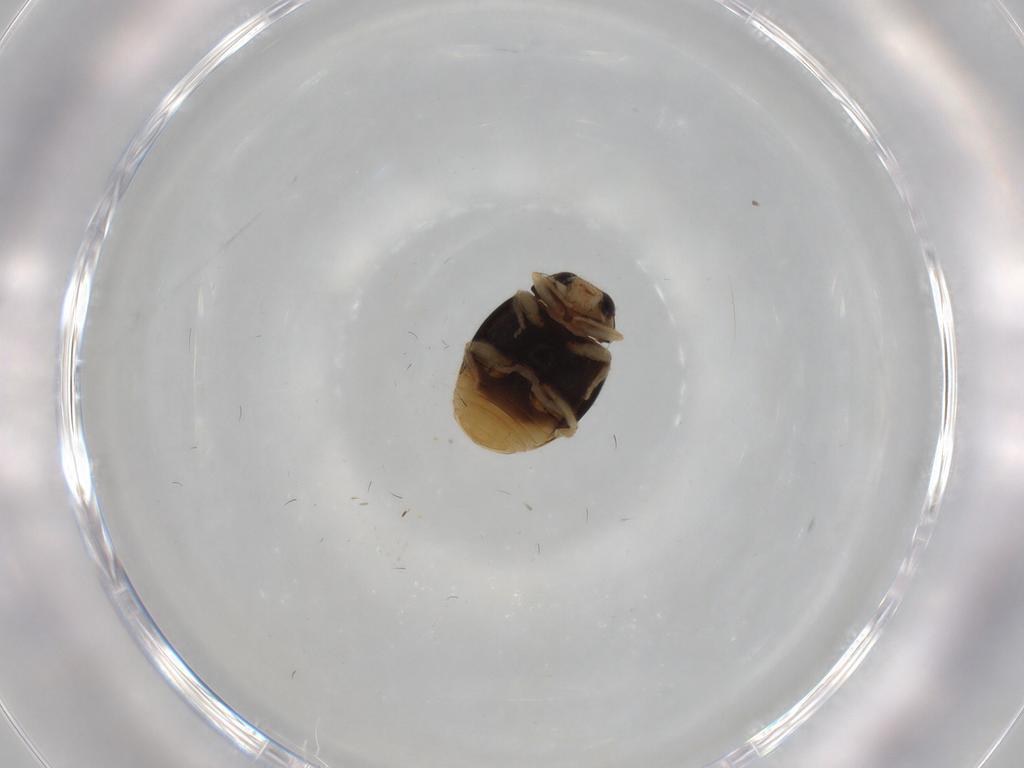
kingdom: Animalia
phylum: Arthropoda
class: Insecta
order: Coleoptera
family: Coccinellidae
